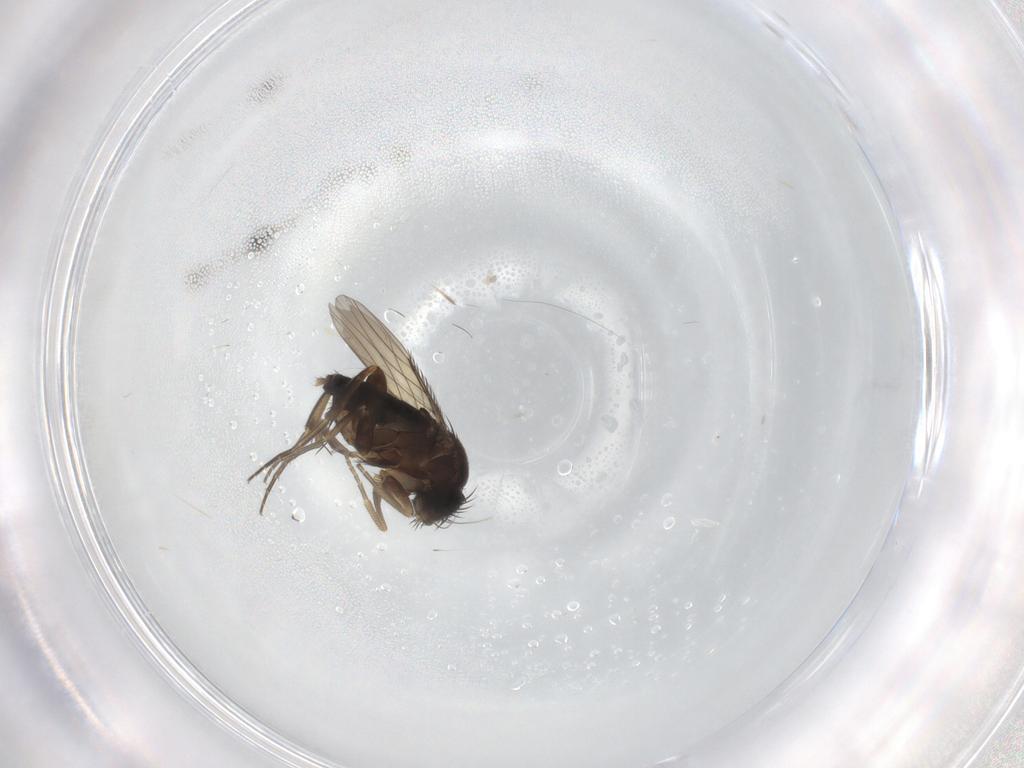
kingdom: Animalia
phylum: Arthropoda
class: Insecta
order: Diptera
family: Phoridae
